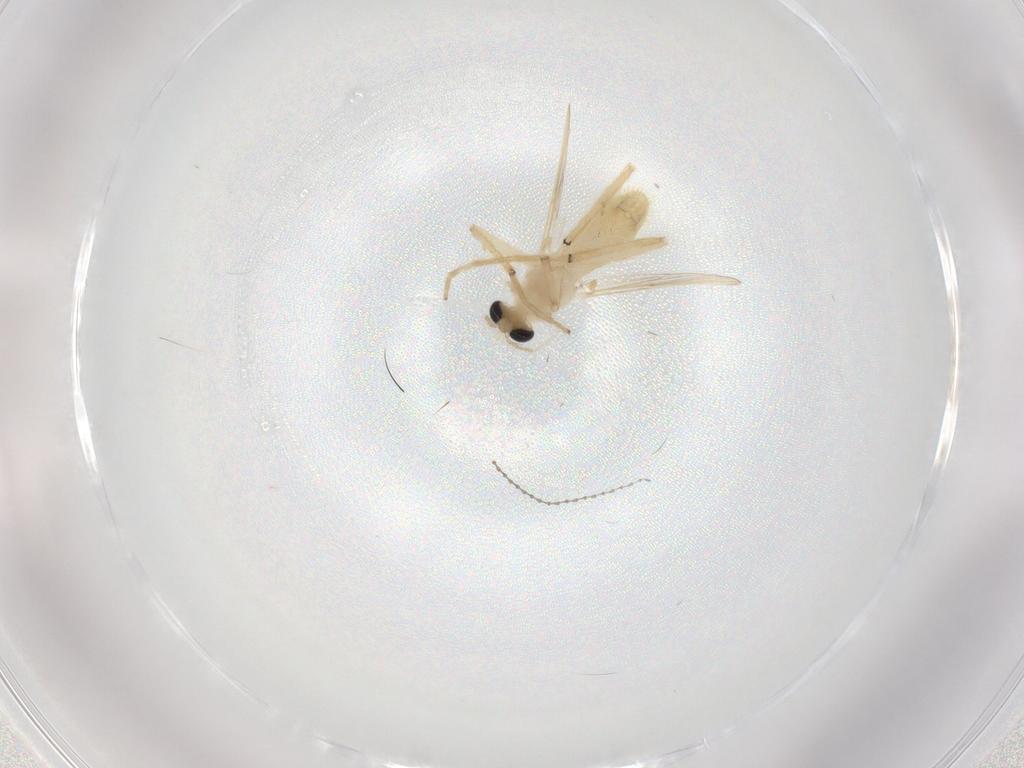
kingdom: Animalia
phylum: Arthropoda
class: Insecta
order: Diptera
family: Chironomidae
